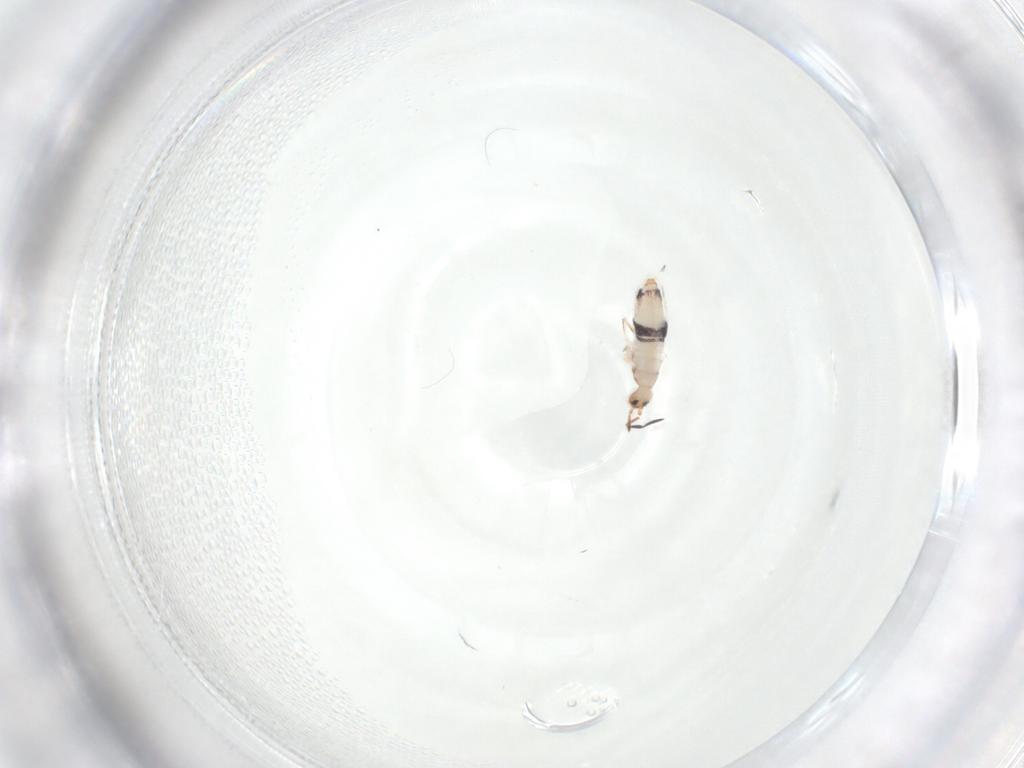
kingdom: Animalia
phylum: Arthropoda
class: Collembola
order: Entomobryomorpha
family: Entomobryidae
